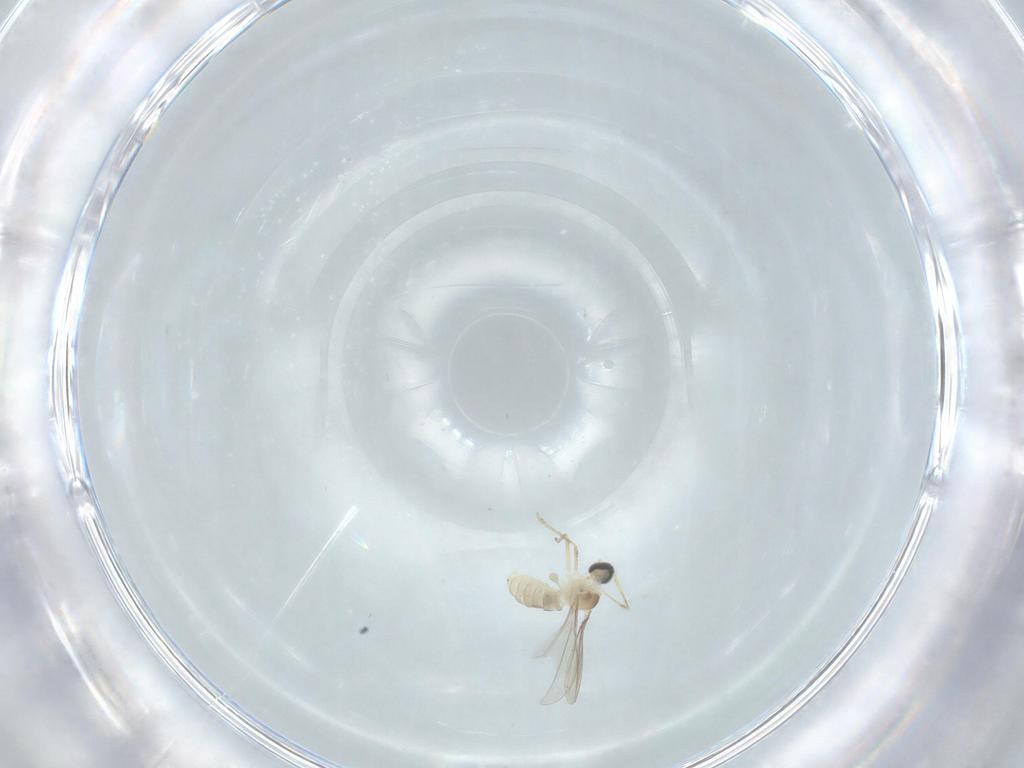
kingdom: Animalia
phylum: Arthropoda
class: Insecta
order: Diptera
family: Cecidomyiidae
